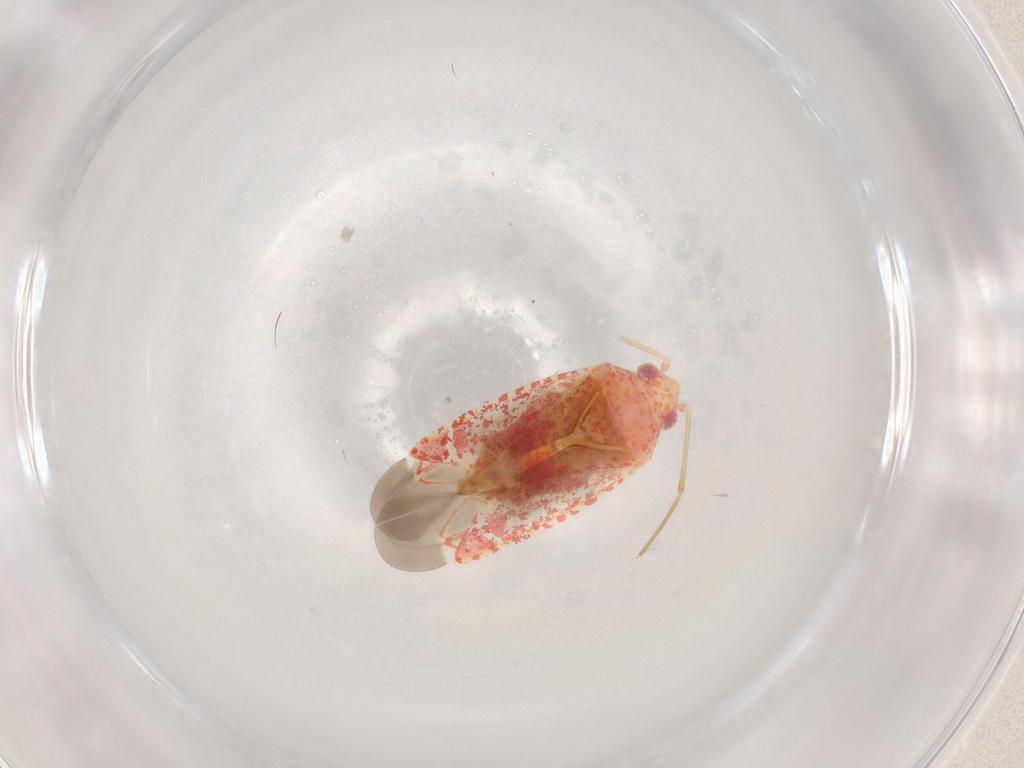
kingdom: Animalia
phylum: Arthropoda
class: Insecta
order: Hemiptera
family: Miridae
